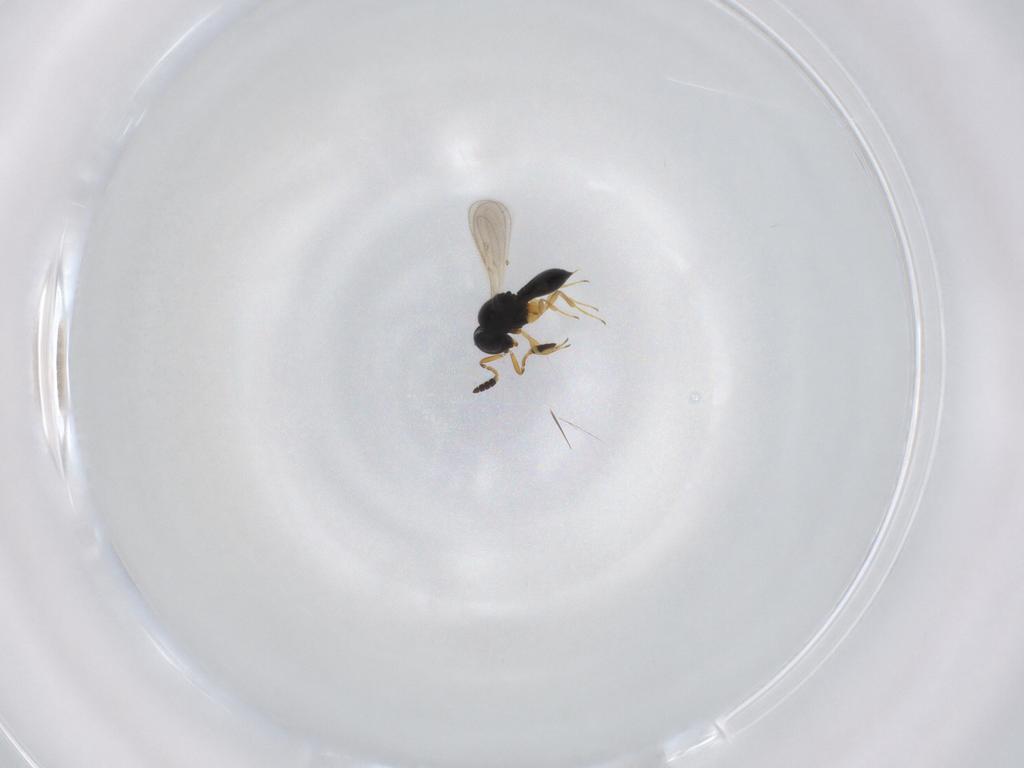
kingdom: Animalia
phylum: Arthropoda
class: Insecta
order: Hymenoptera
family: Scelionidae
